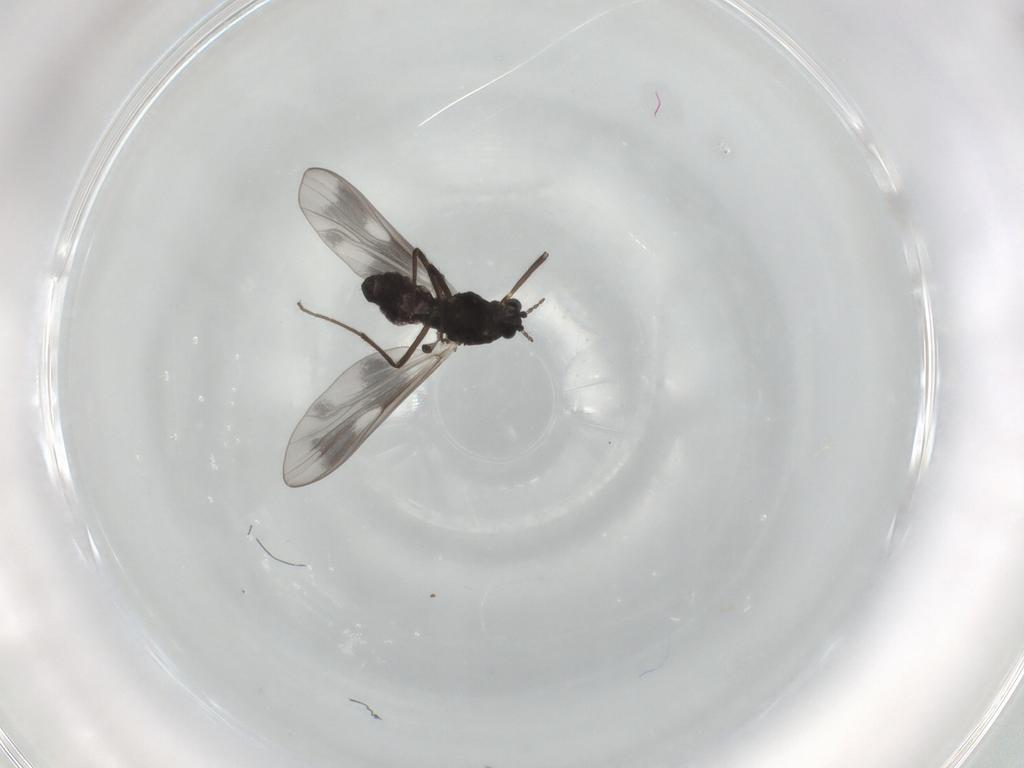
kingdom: Animalia
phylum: Arthropoda
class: Insecta
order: Diptera
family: Chironomidae
